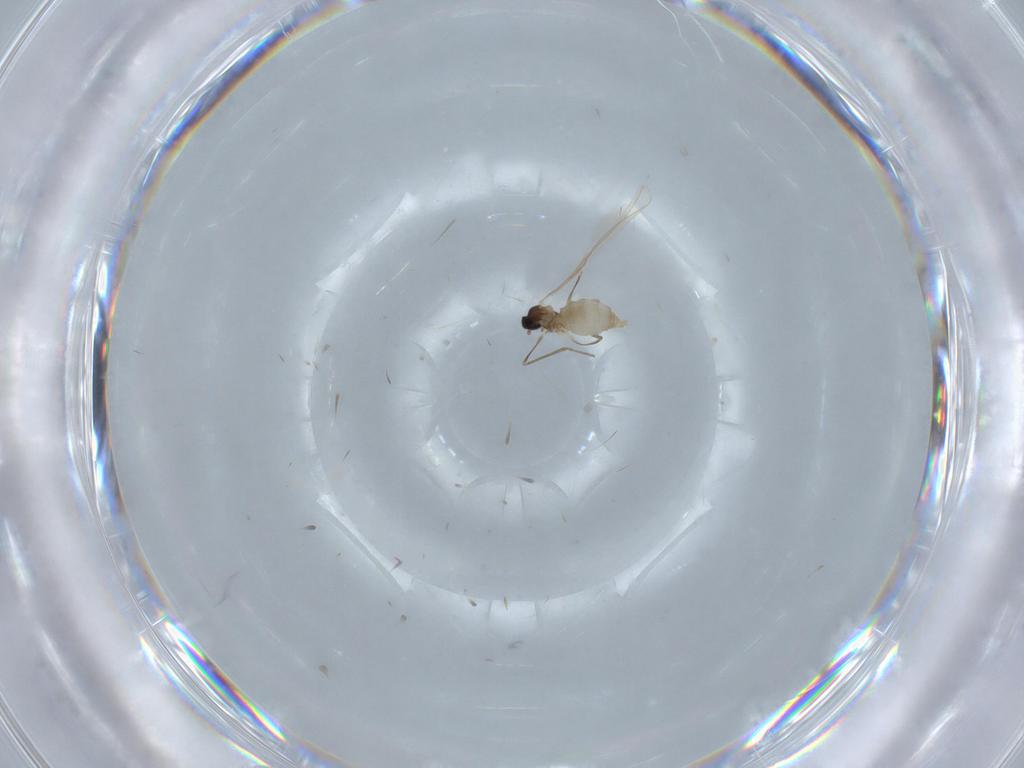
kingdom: Animalia
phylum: Arthropoda
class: Insecta
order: Diptera
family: Cecidomyiidae
